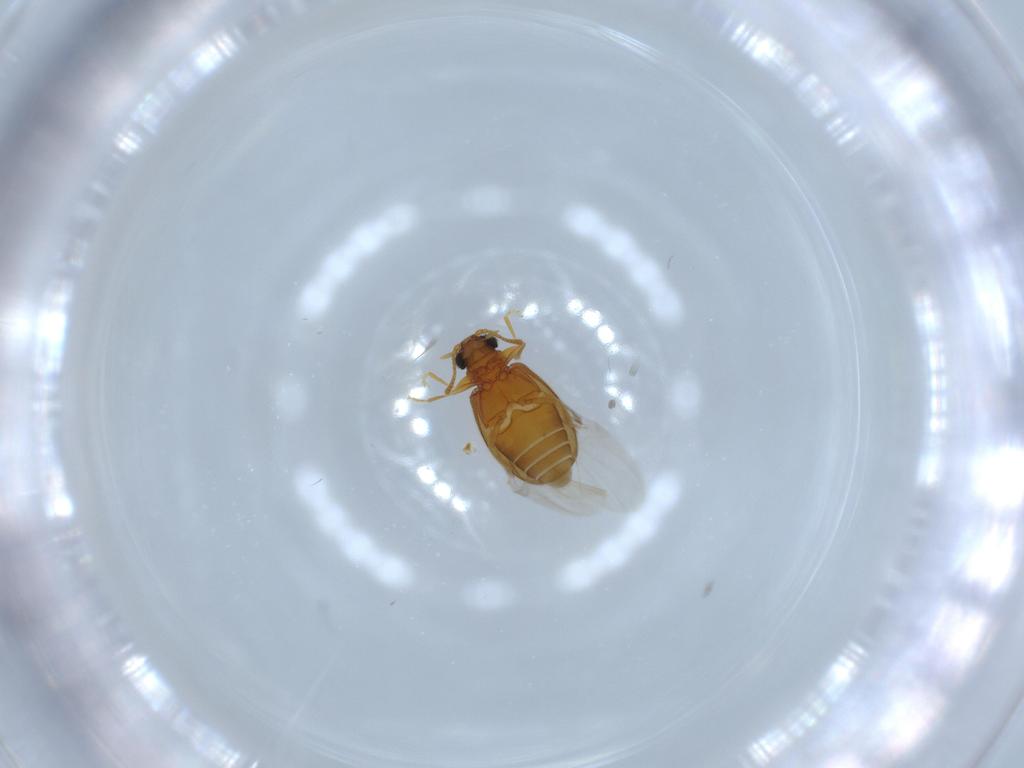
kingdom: Animalia
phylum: Arthropoda
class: Insecta
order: Coleoptera
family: Aderidae
